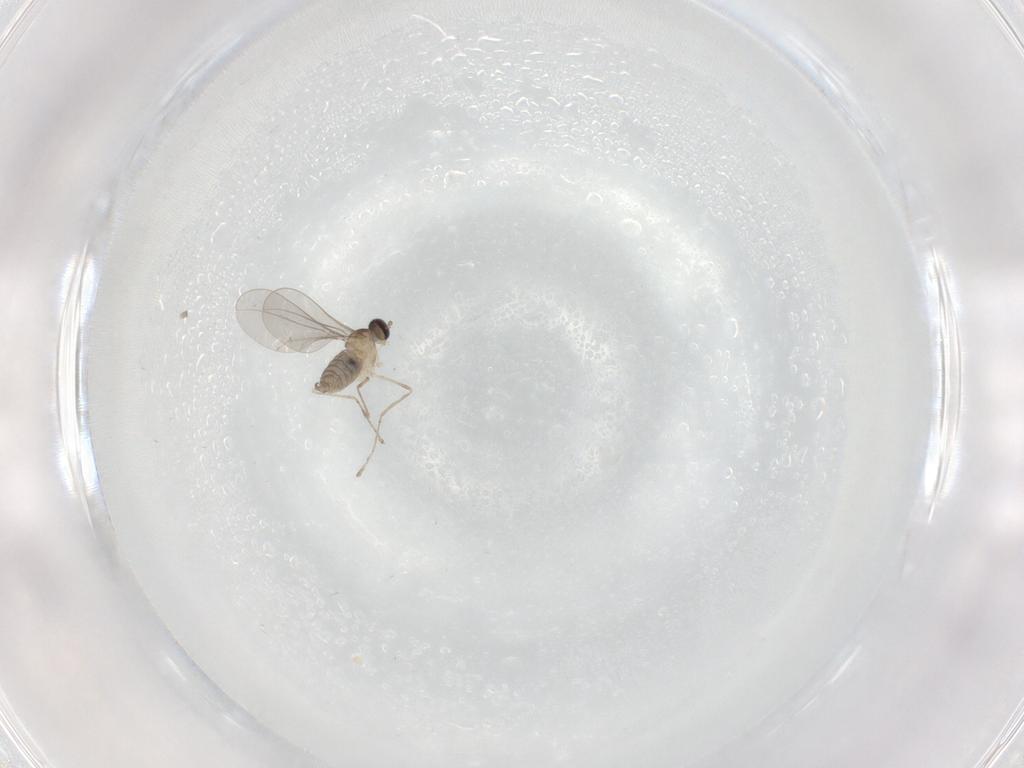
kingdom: Animalia
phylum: Arthropoda
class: Insecta
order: Diptera
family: Cecidomyiidae
